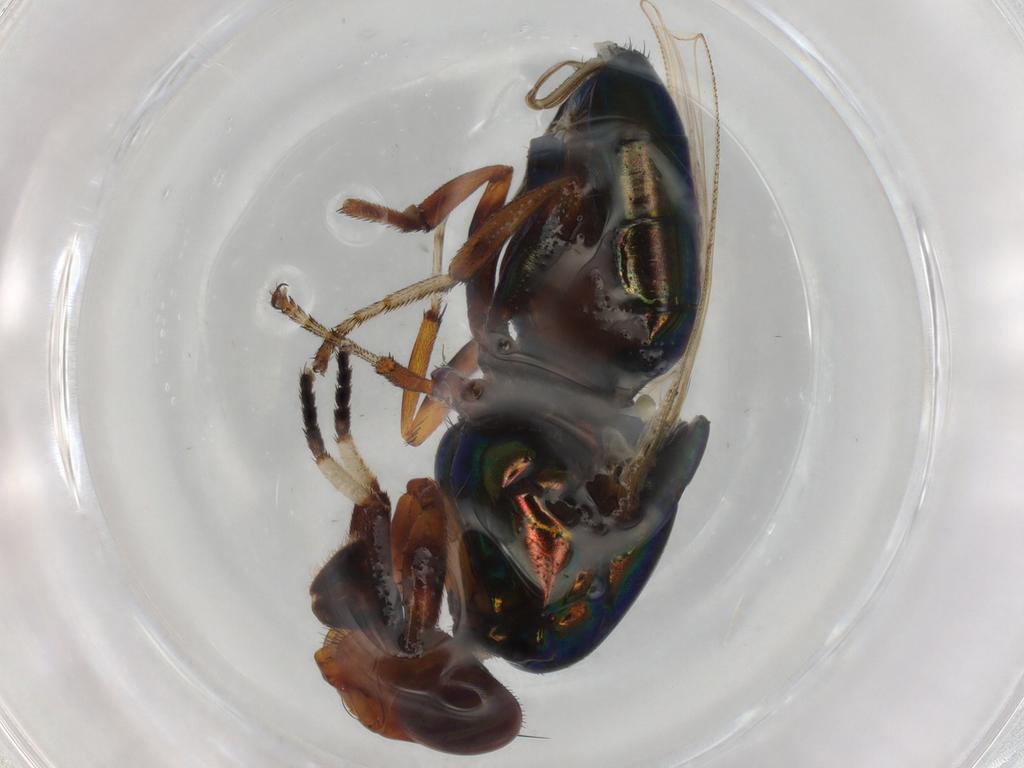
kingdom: Animalia
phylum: Arthropoda
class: Insecta
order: Diptera
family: Ulidiidae
